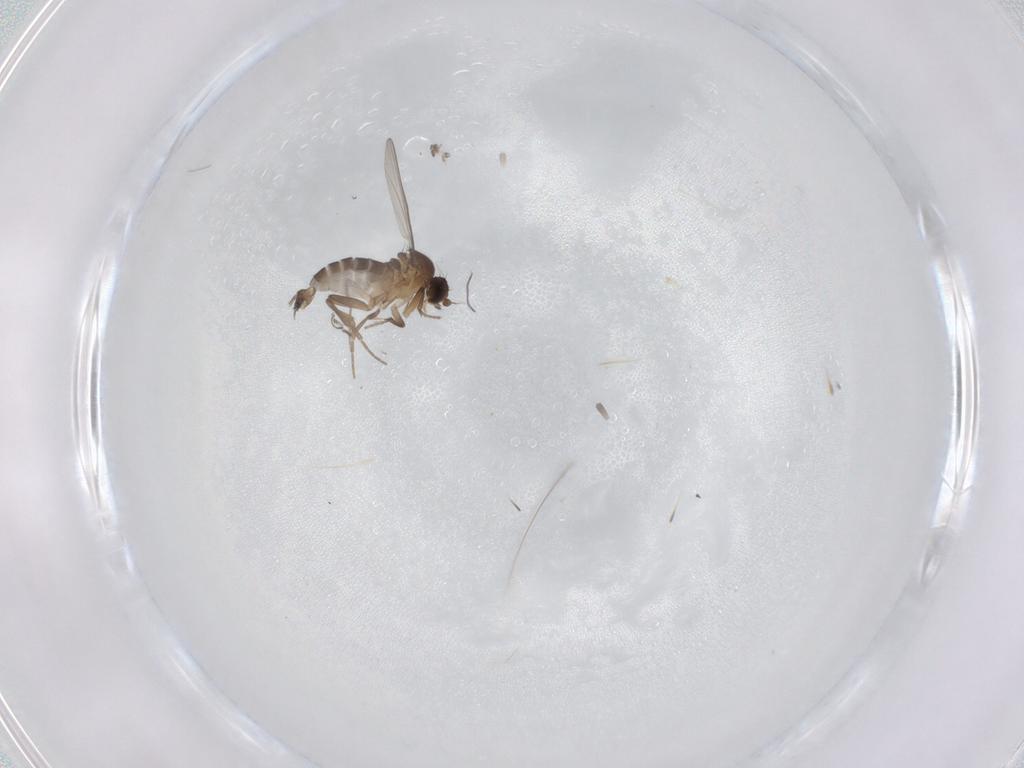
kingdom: Animalia
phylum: Arthropoda
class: Insecta
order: Diptera
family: Phoridae
